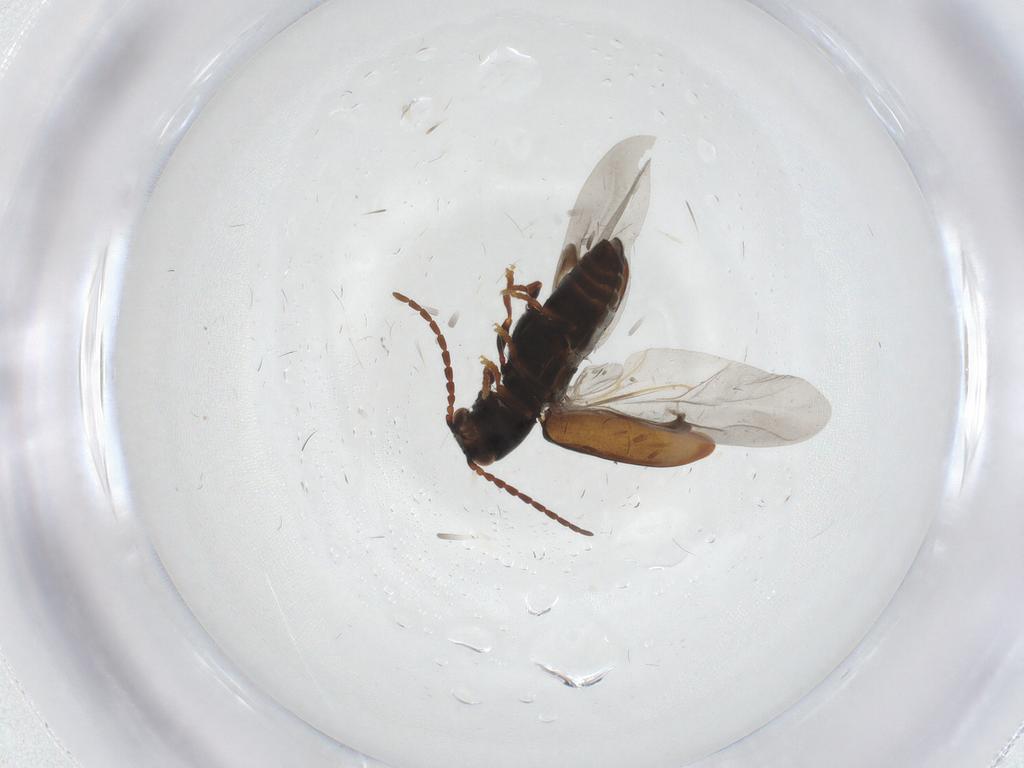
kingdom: Animalia
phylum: Arthropoda
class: Insecta
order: Coleoptera
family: Ptinidae
